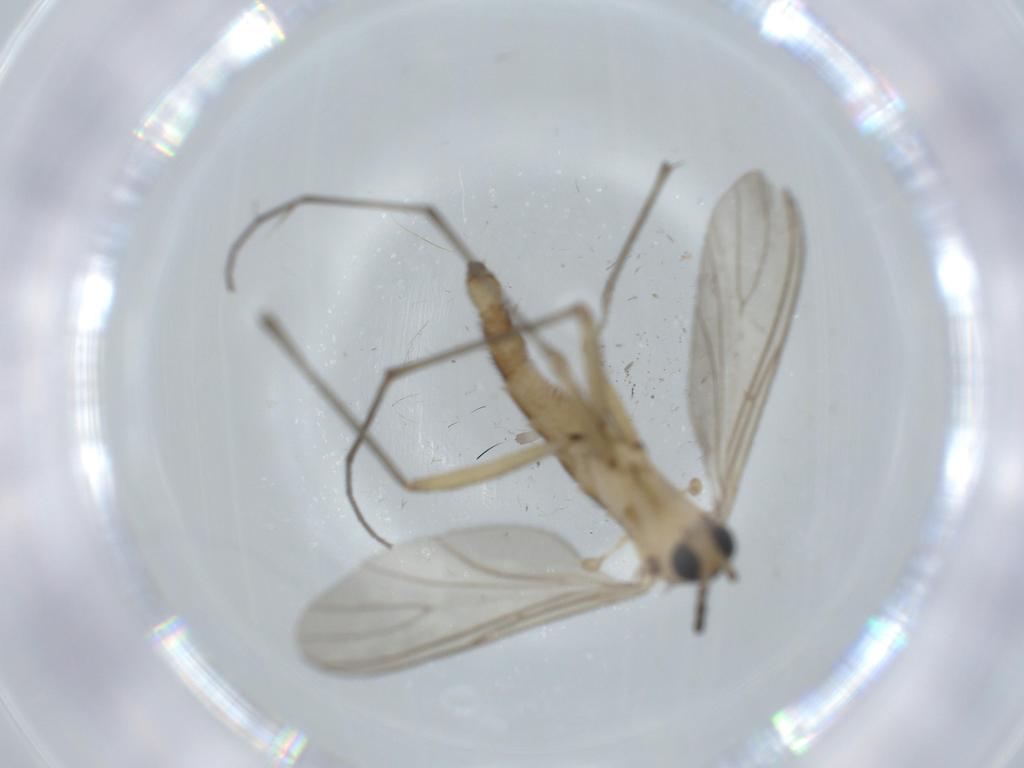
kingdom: Animalia
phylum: Arthropoda
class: Insecta
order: Diptera
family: Sciaridae
